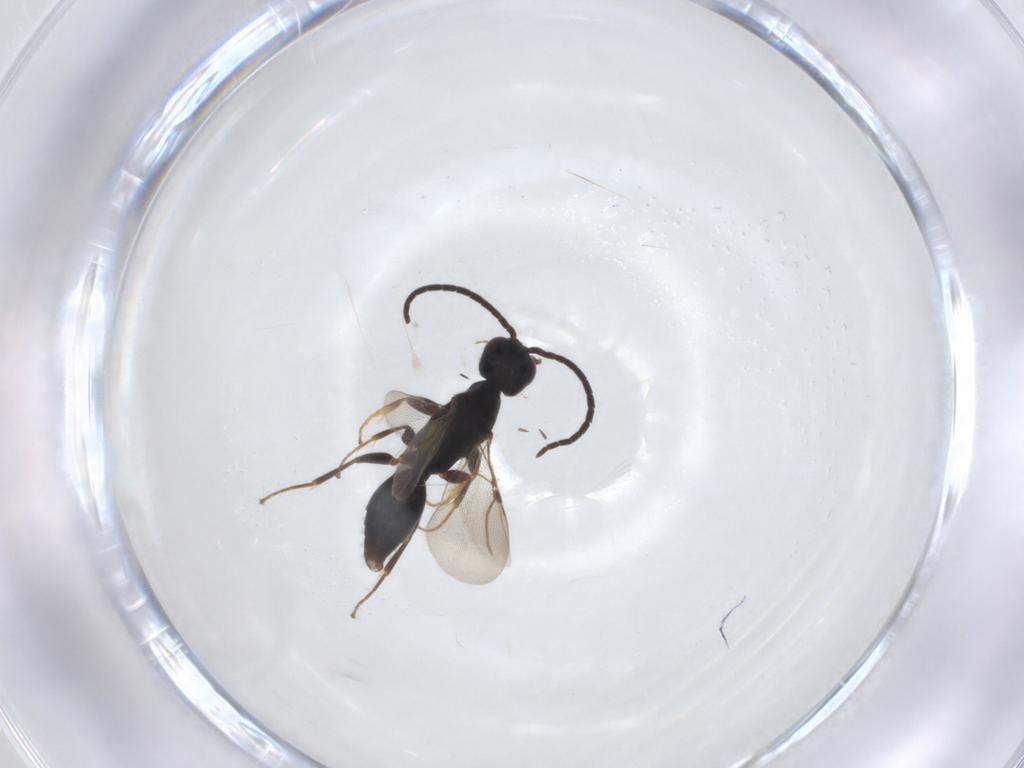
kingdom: Animalia
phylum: Arthropoda
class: Insecta
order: Hymenoptera
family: Bethylidae
